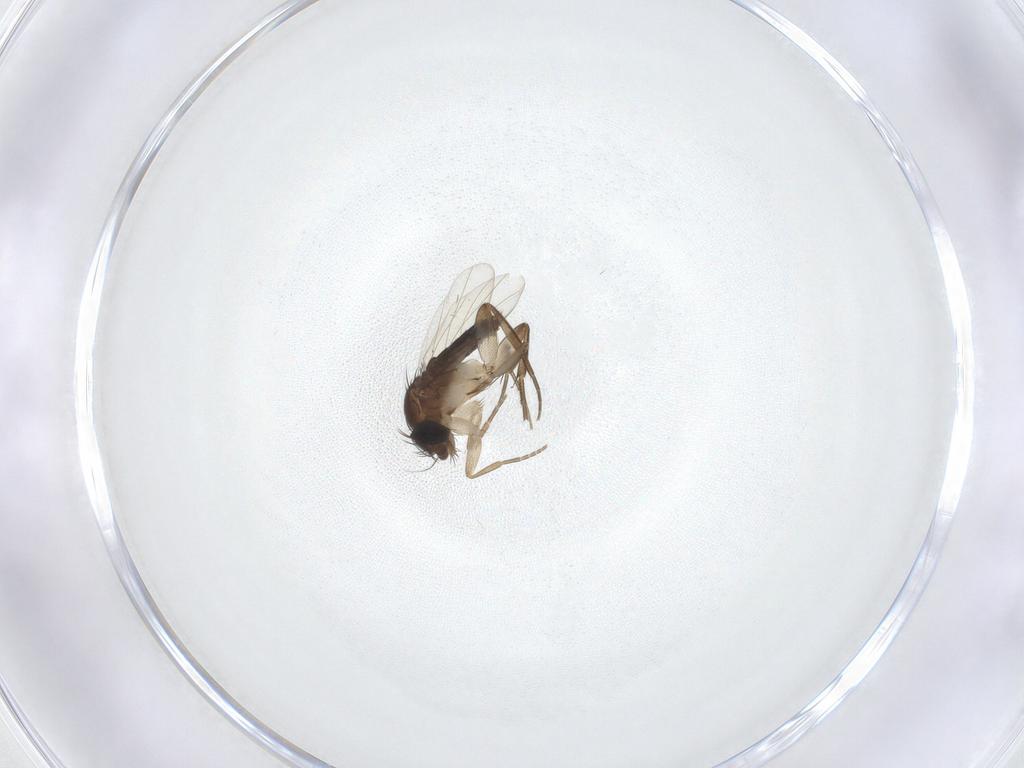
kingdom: Animalia
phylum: Arthropoda
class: Insecta
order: Diptera
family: Phoridae
